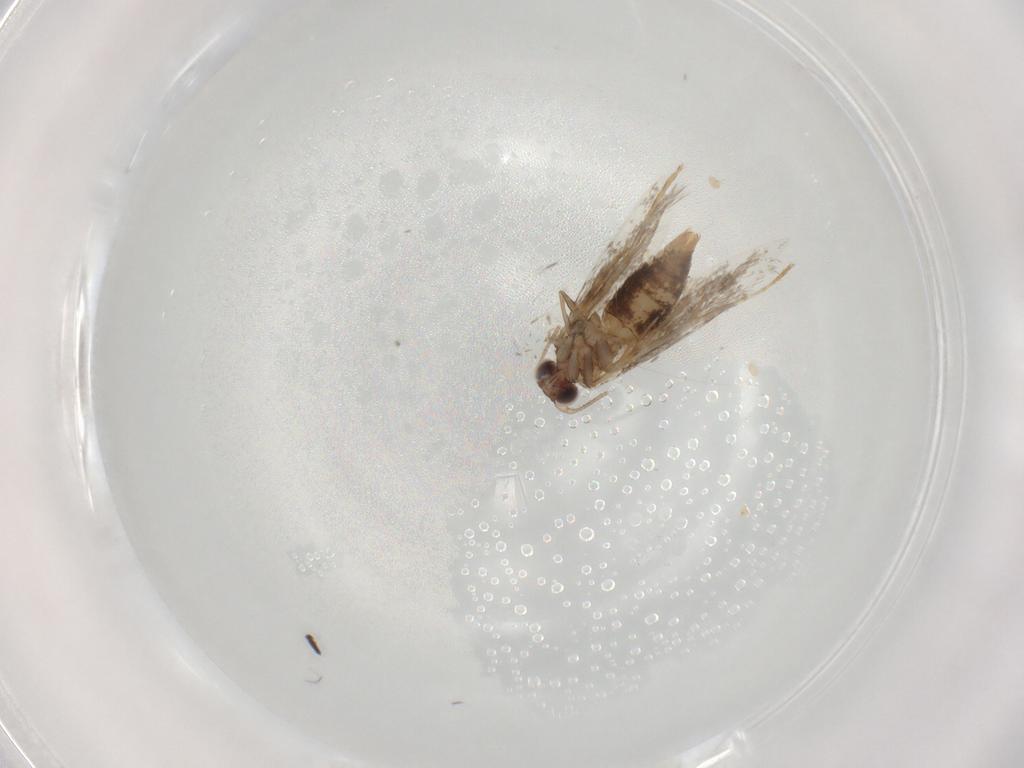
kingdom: Animalia
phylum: Arthropoda
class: Insecta
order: Lepidoptera
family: Tineidae
